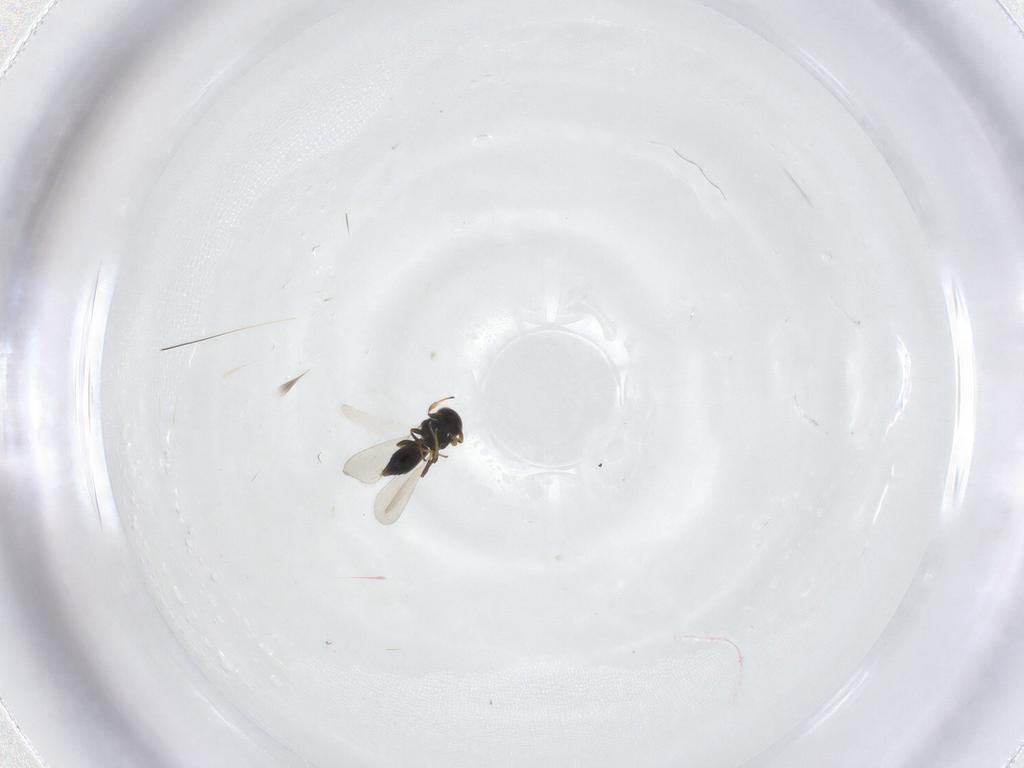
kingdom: Animalia
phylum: Arthropoda
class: Insecta
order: Hymenoptera
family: Platygastridae
